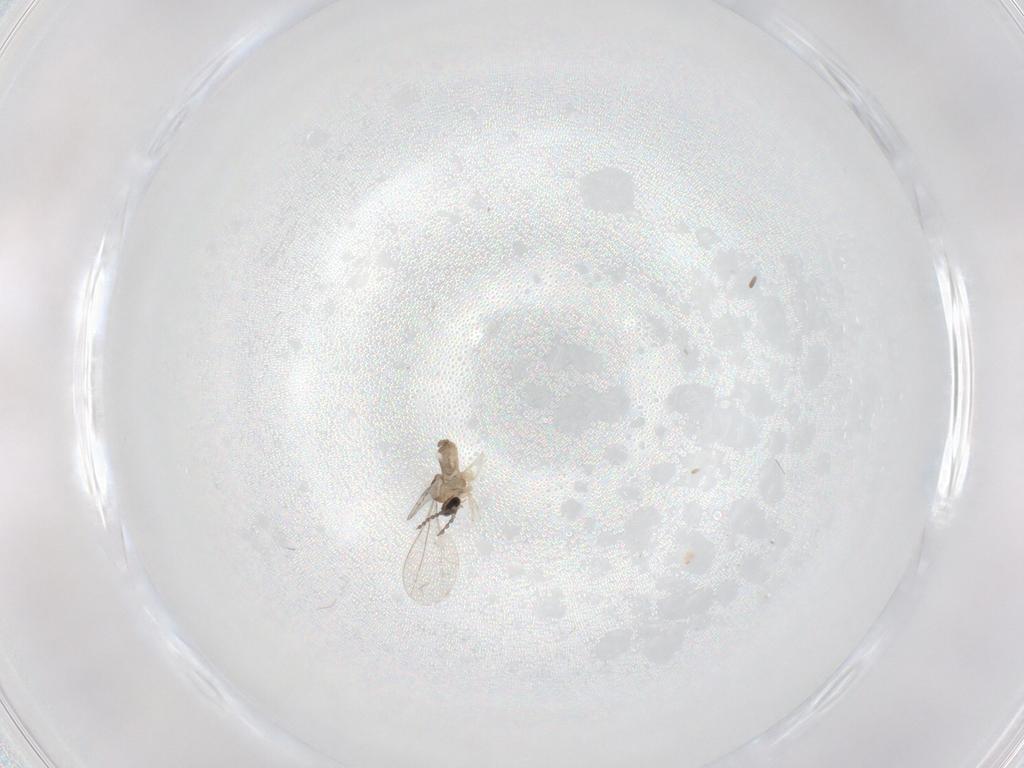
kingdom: Animalia
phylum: Arthropoda
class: Insecta
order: Diptera
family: Cecidomyiidae
